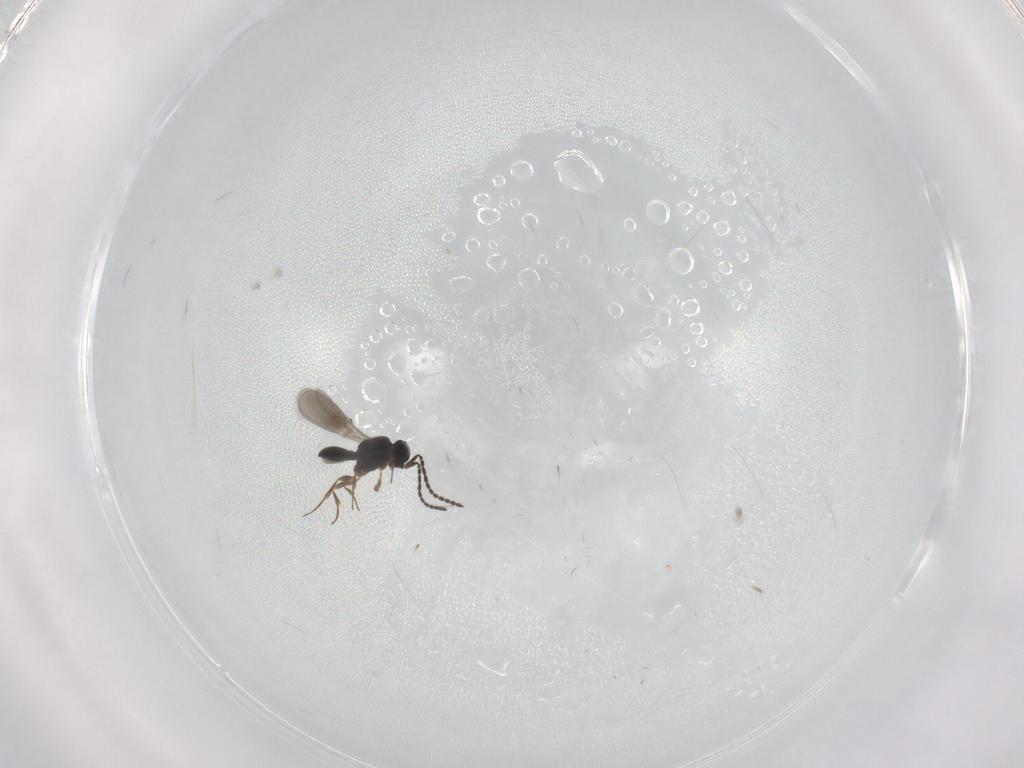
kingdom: Animalia
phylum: Arthropoda
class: Insecta
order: Hymenoptera
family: Scelionidae
